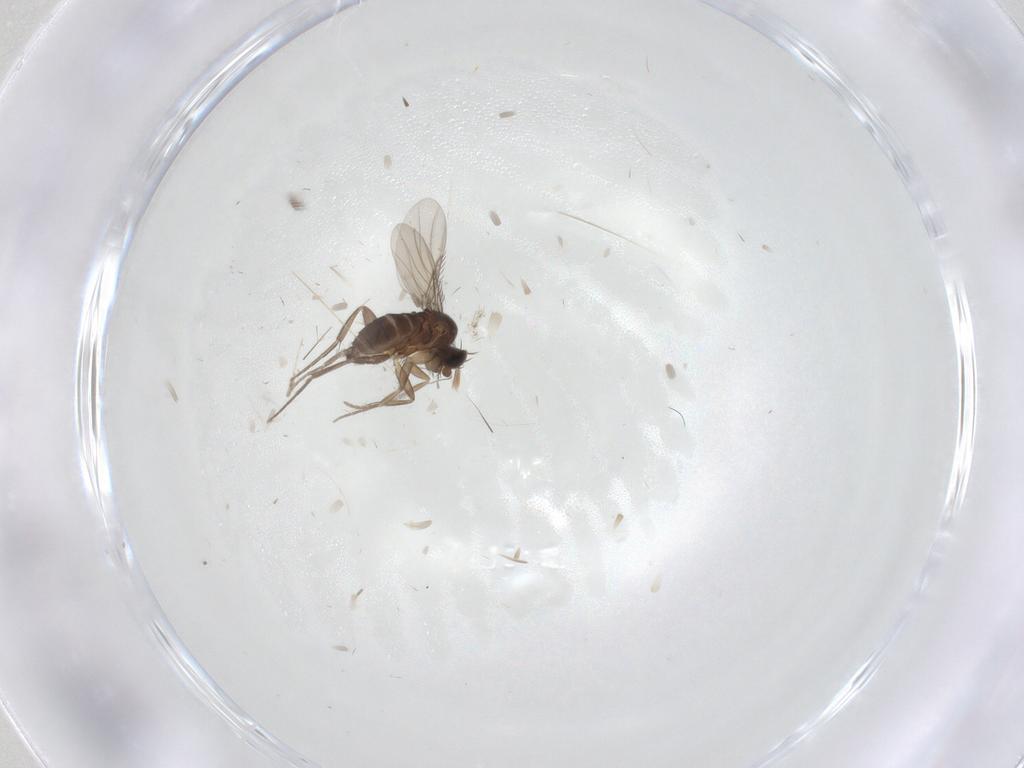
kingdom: Animalia
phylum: Arthropoda
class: Insecta
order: Diptera
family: Phoridae
